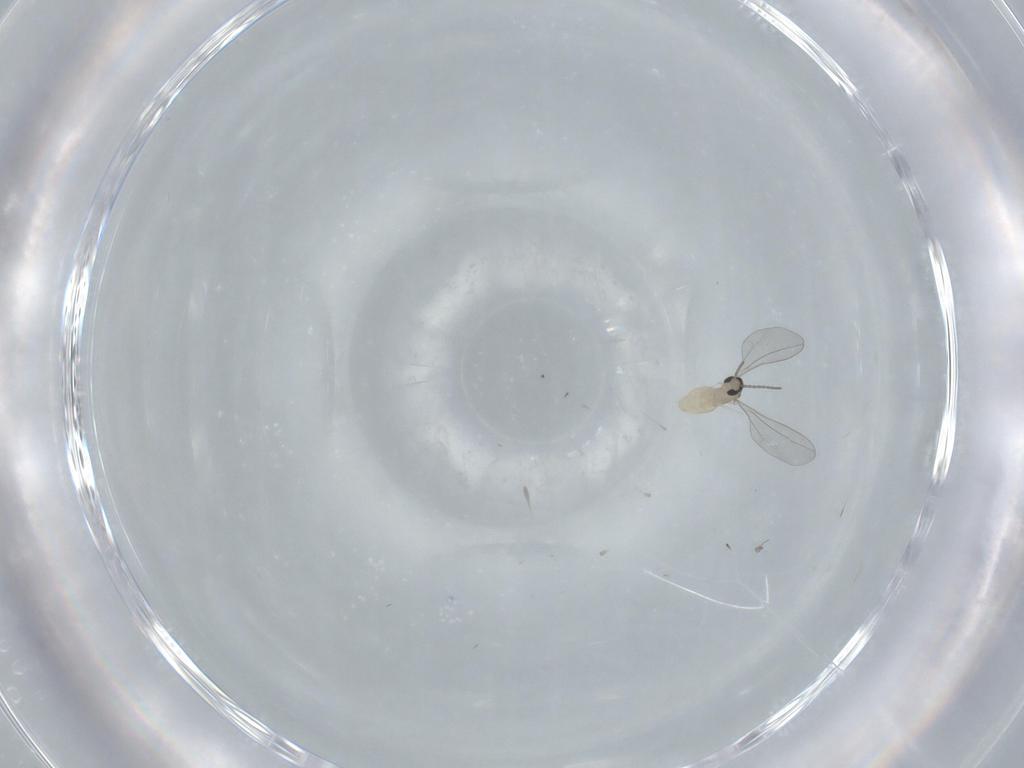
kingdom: Animalia
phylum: Arthropoda
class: Insecta
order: Diptera
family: Cecidomyiidae
